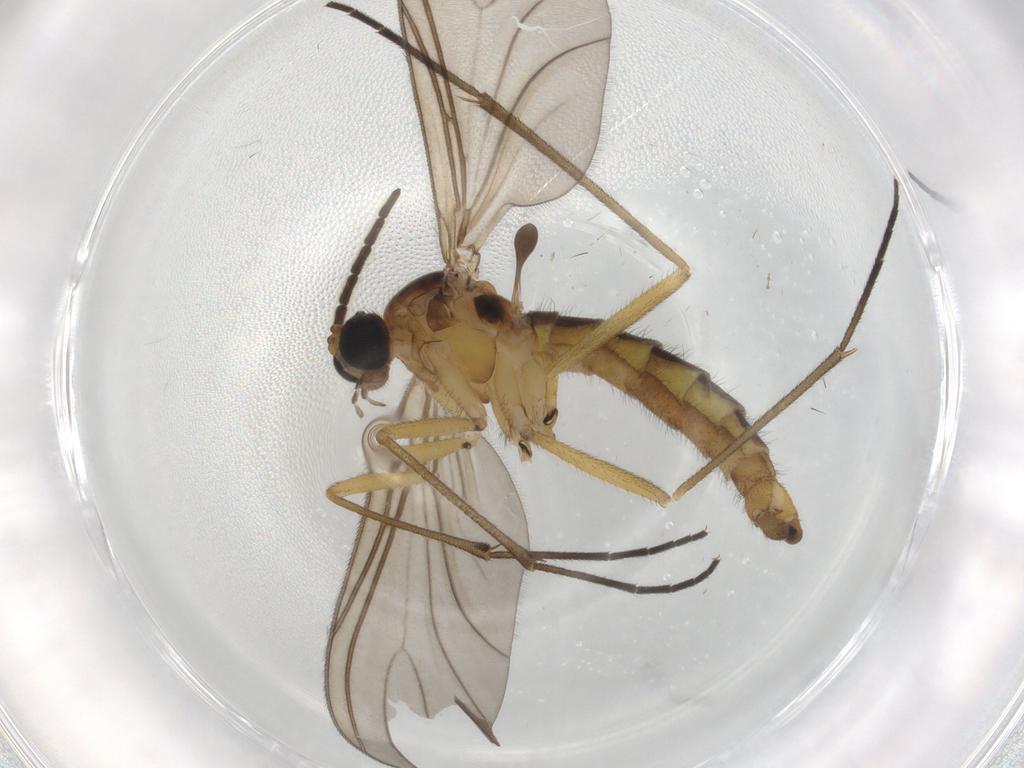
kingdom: Animalia
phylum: Arthropoda
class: Insecta
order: Diptera
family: Sciaridae
